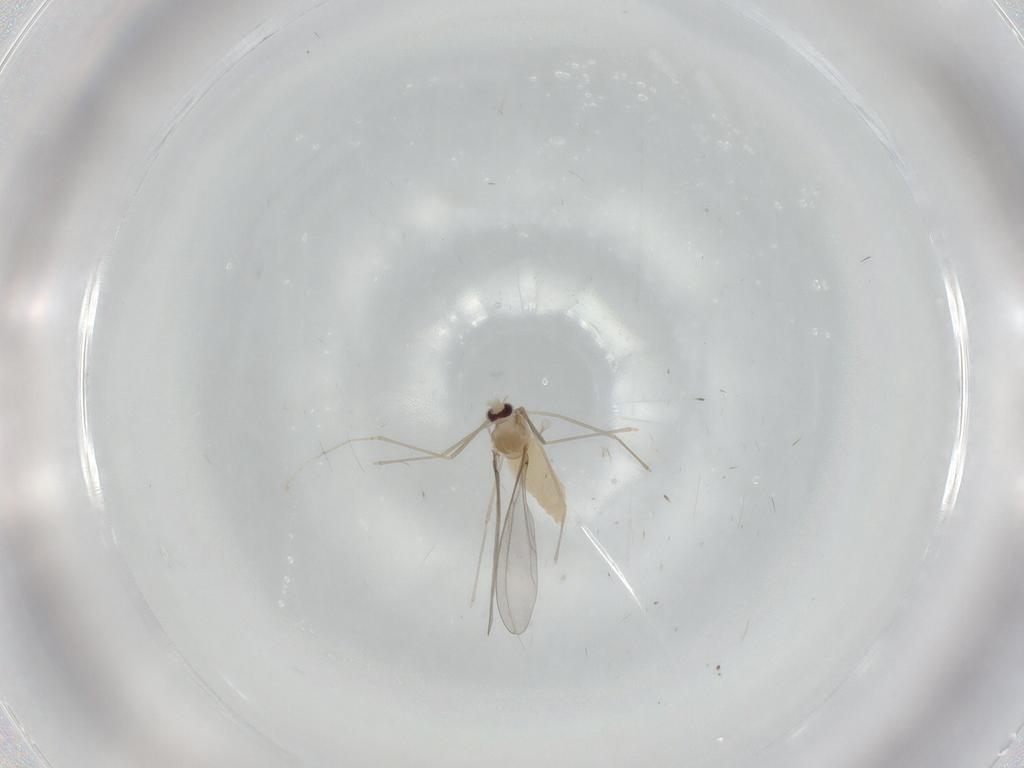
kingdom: Animalia
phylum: Arthropoda
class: Insecta
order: Diptera
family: Cecidomyiidae
